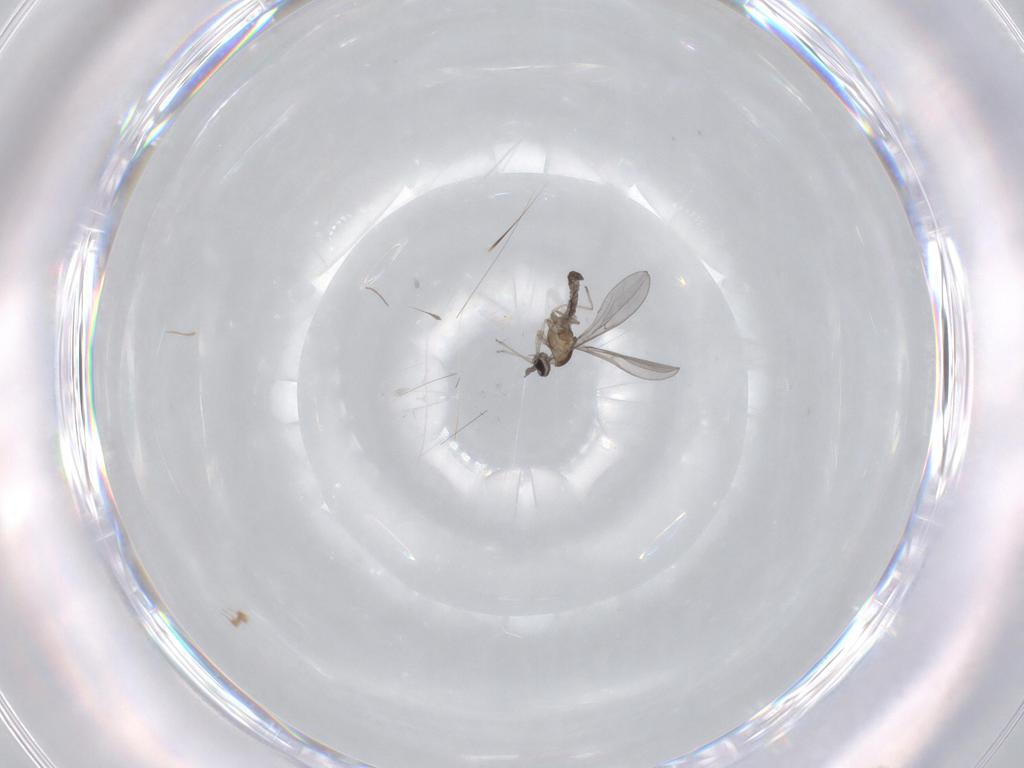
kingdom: Animalia
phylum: Arthropoda
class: Insecta
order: Diptera
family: Cecidomyiidae
